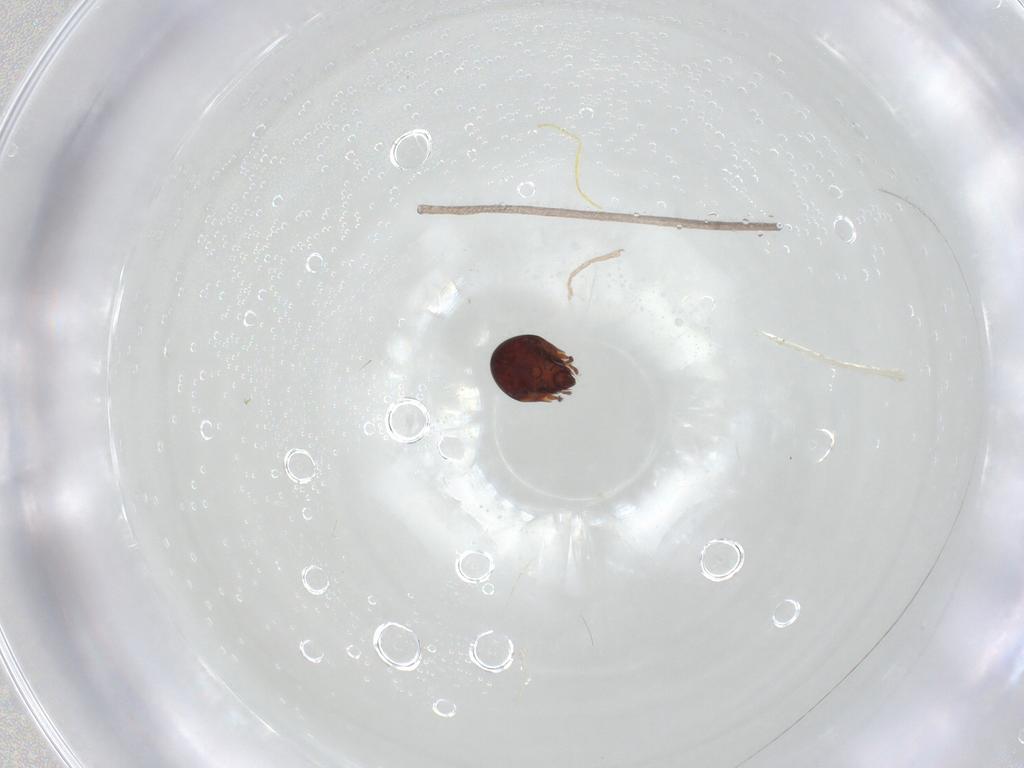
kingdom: Animalia
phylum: Arthropoda
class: Arachnida
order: Sarcoptiformes
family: Humerobatidae
